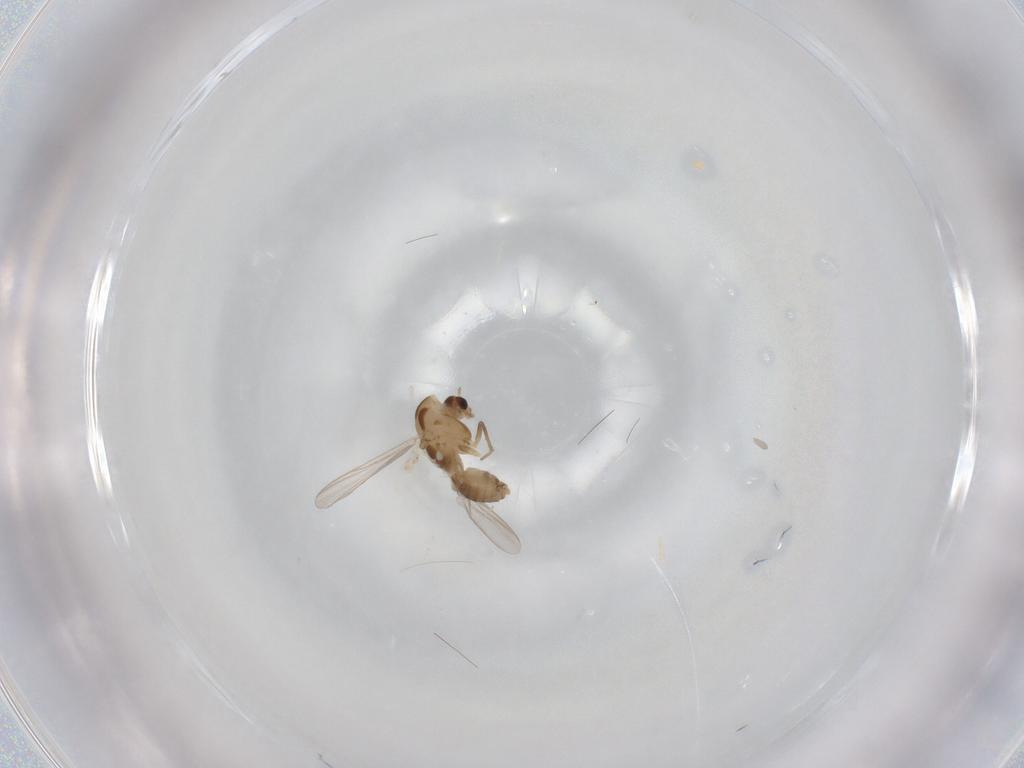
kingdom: Animalia
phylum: Arthropoda
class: Insecta
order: Diptera
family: Chironomidae
